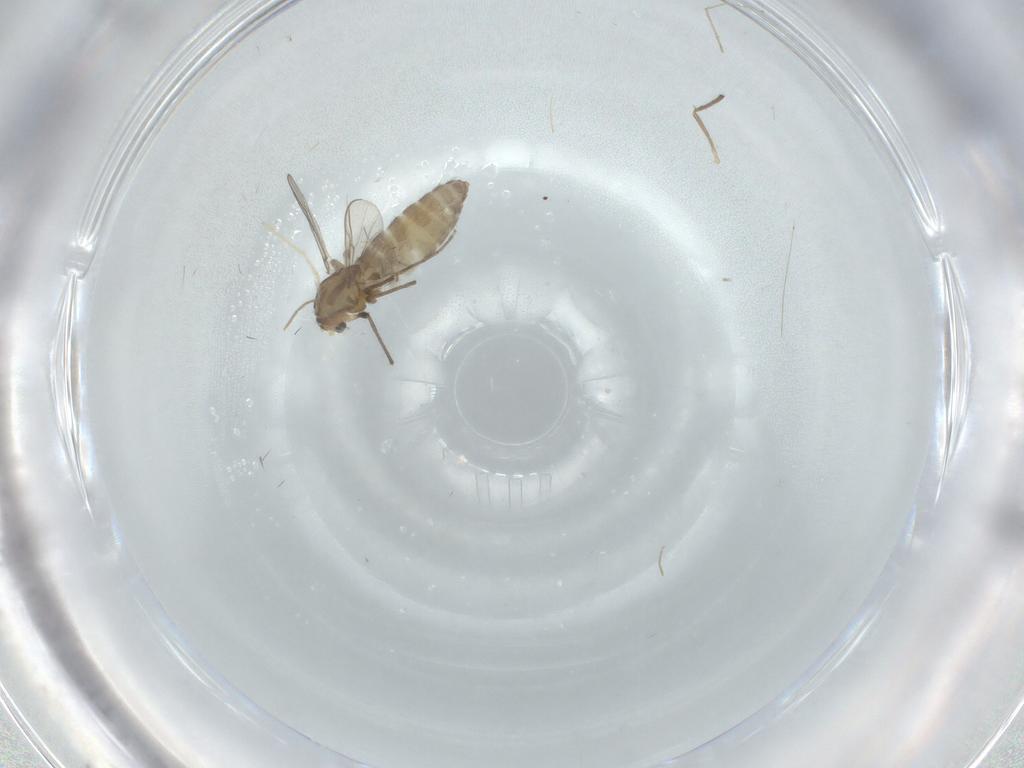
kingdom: Animalia
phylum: Arthropoda
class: Insecta
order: Diptera
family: Chironomidae
